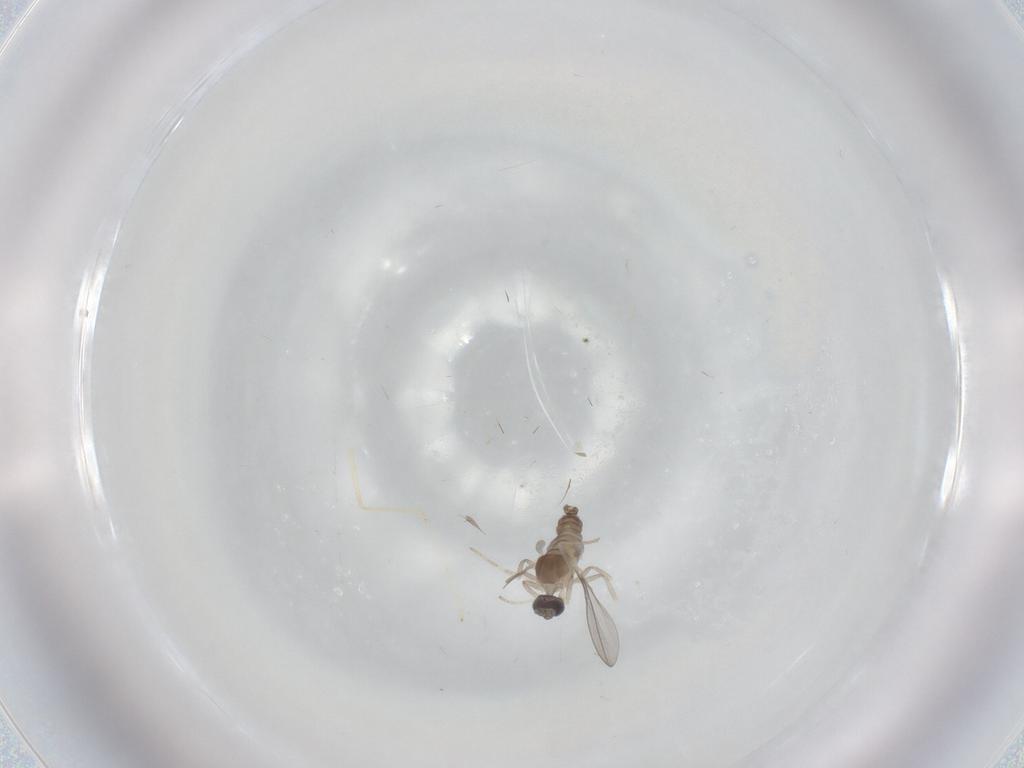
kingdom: Animalia
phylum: Arthropoda
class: Insecta
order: Diptera
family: Cecidomyiidae
